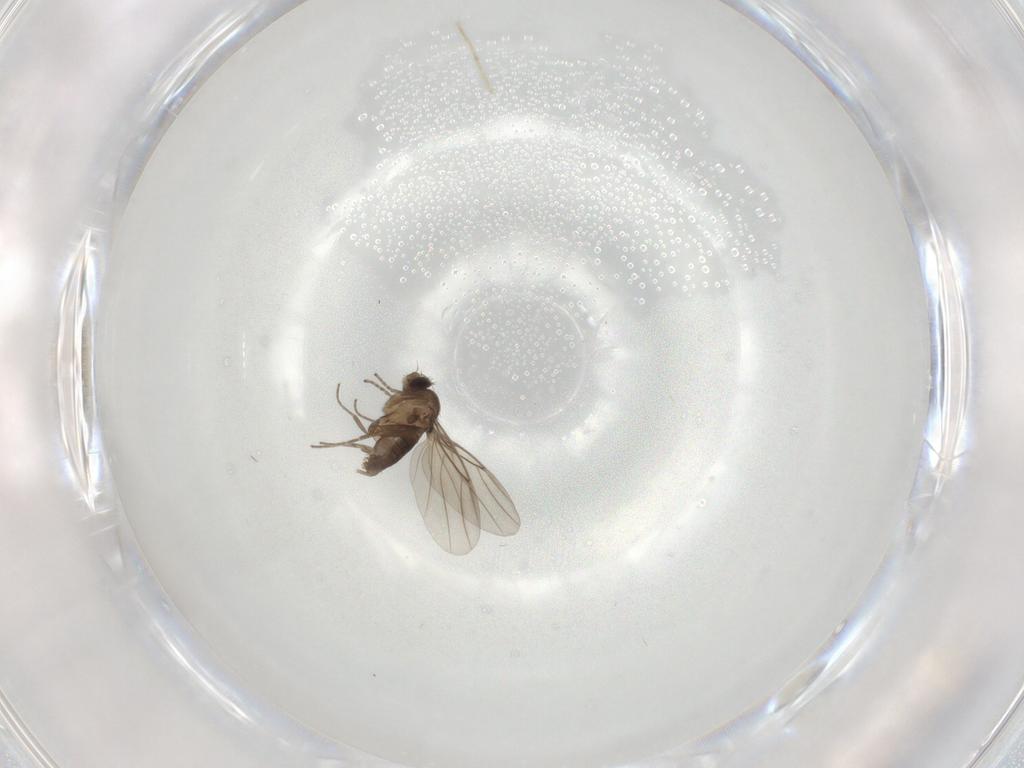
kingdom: Animalia
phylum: Arthropoda
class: Insecta
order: Diptera
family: Phoridae
